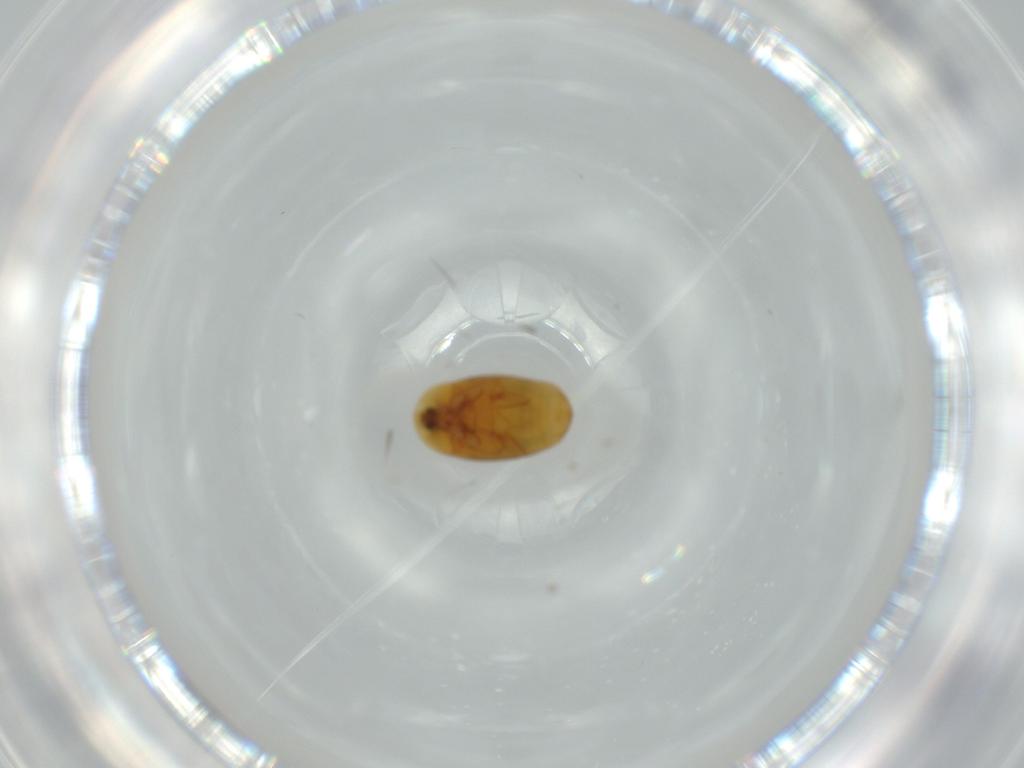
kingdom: Animalia
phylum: Arthropoda
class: Insecta
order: Coleoptera
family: Corylophidae
